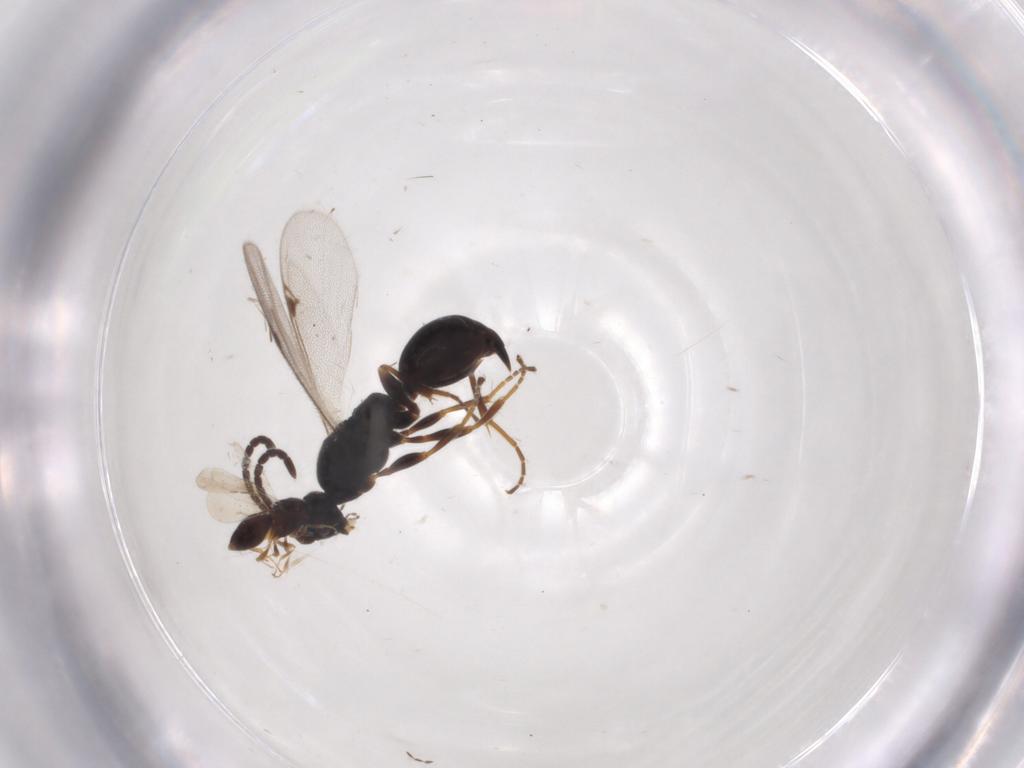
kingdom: Animalia
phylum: Arthropoda
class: Insecta
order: Hymenoptera
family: Proctotrupidae
